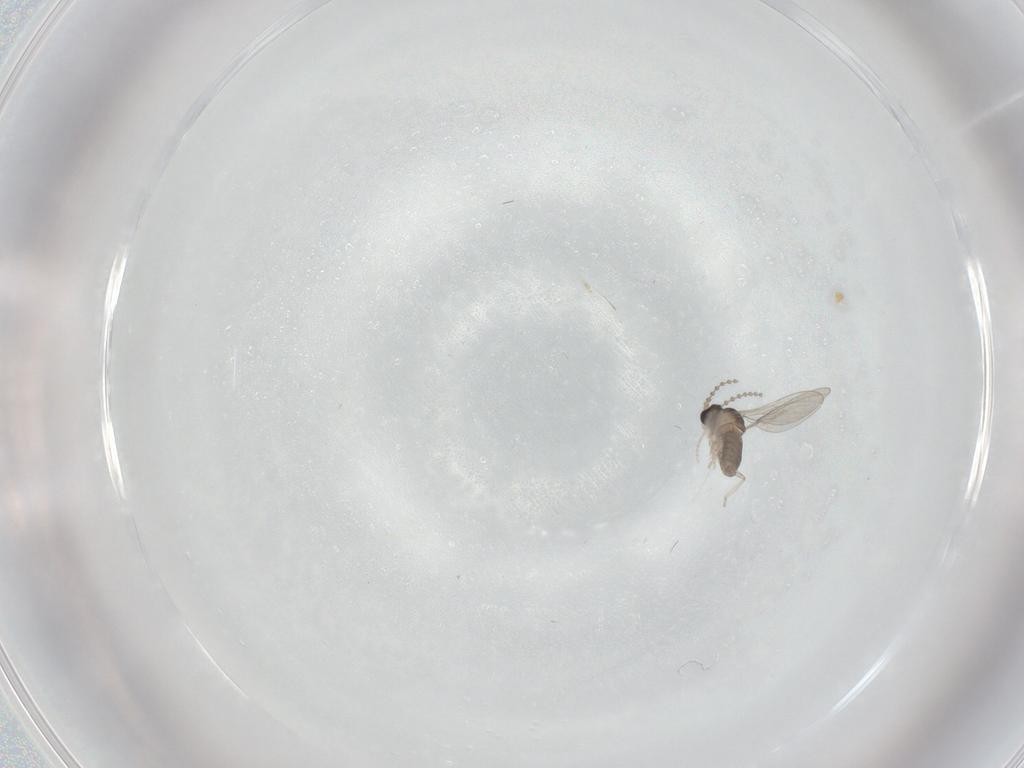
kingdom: Animalia
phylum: Arthropoda
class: Insecta
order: Diptera
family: Cecidomyiidae
